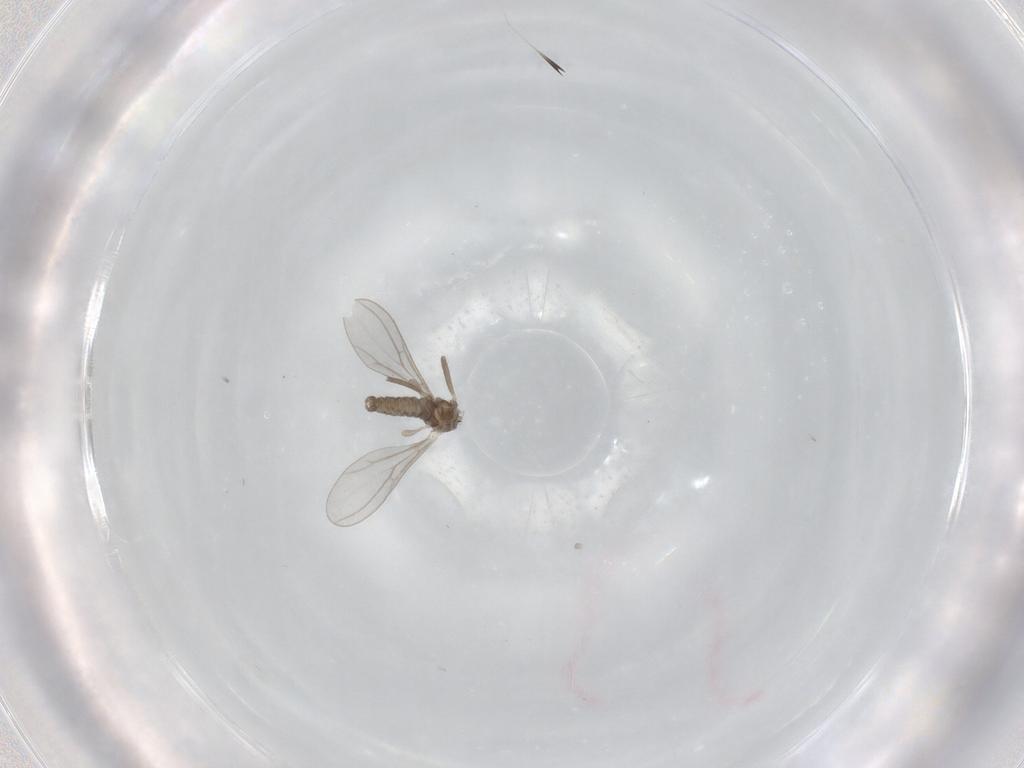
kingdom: Animalia
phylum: Arthropoda
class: Insecta
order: Diptera
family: Cecidomyiidae
